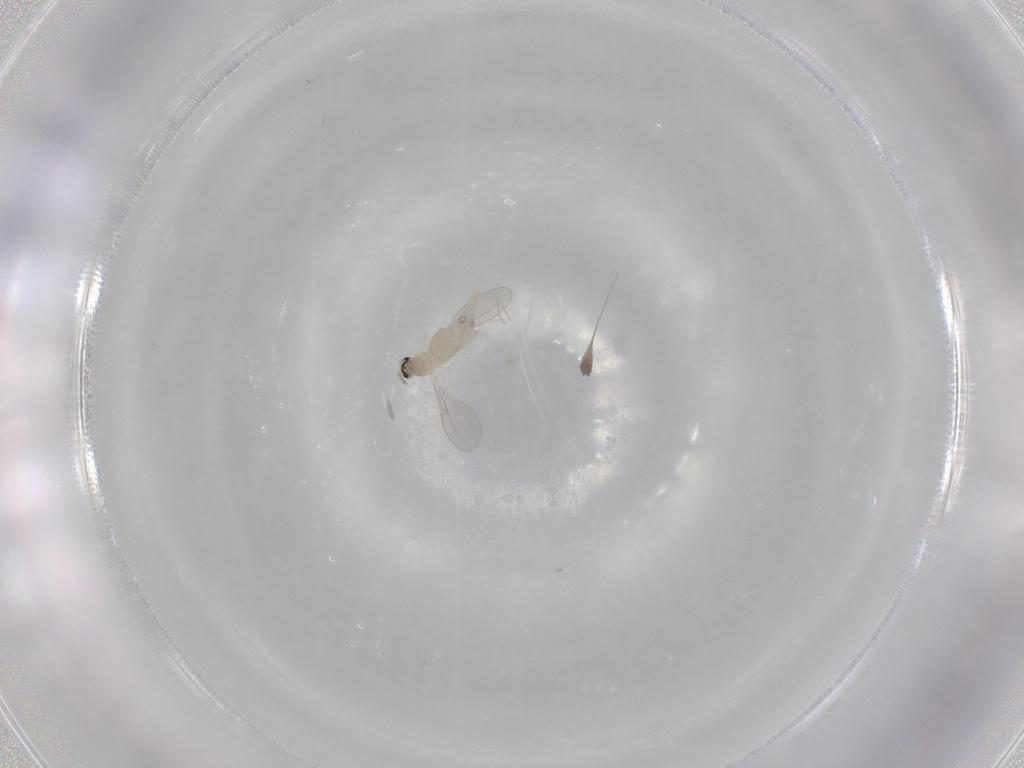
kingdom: Animalia
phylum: Arthropoda
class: Insecta
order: Diptera
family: Cecidomyiidae
